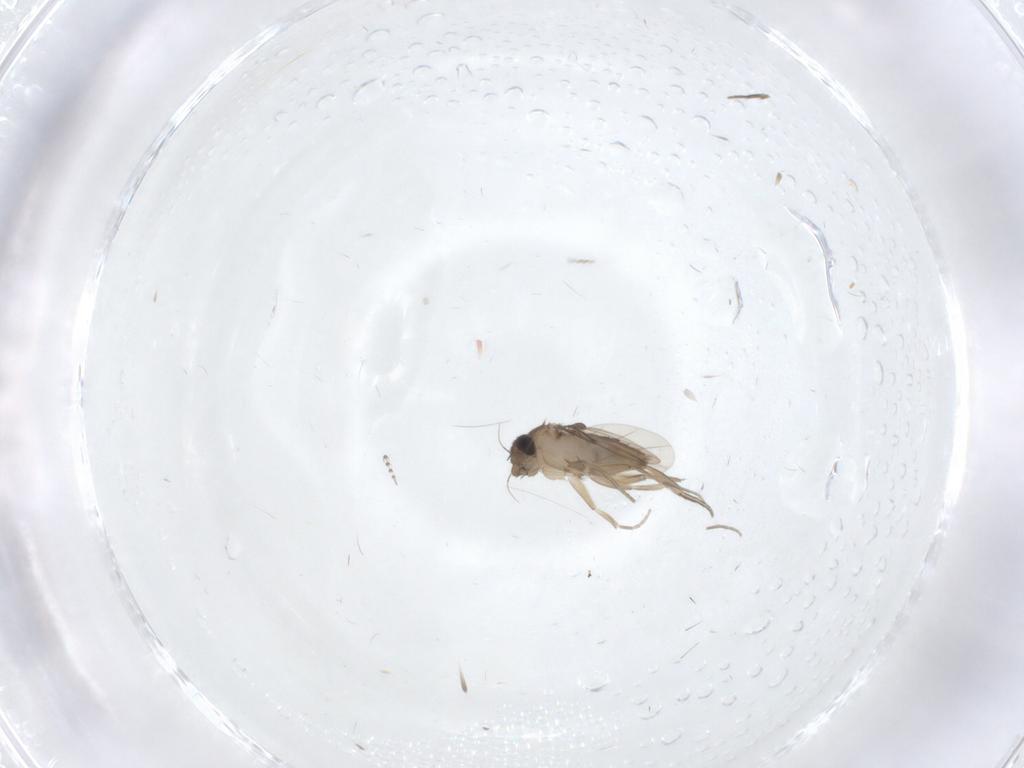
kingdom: Animalia
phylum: Arthropoda
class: Insecta
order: Diptera
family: Phoridae
